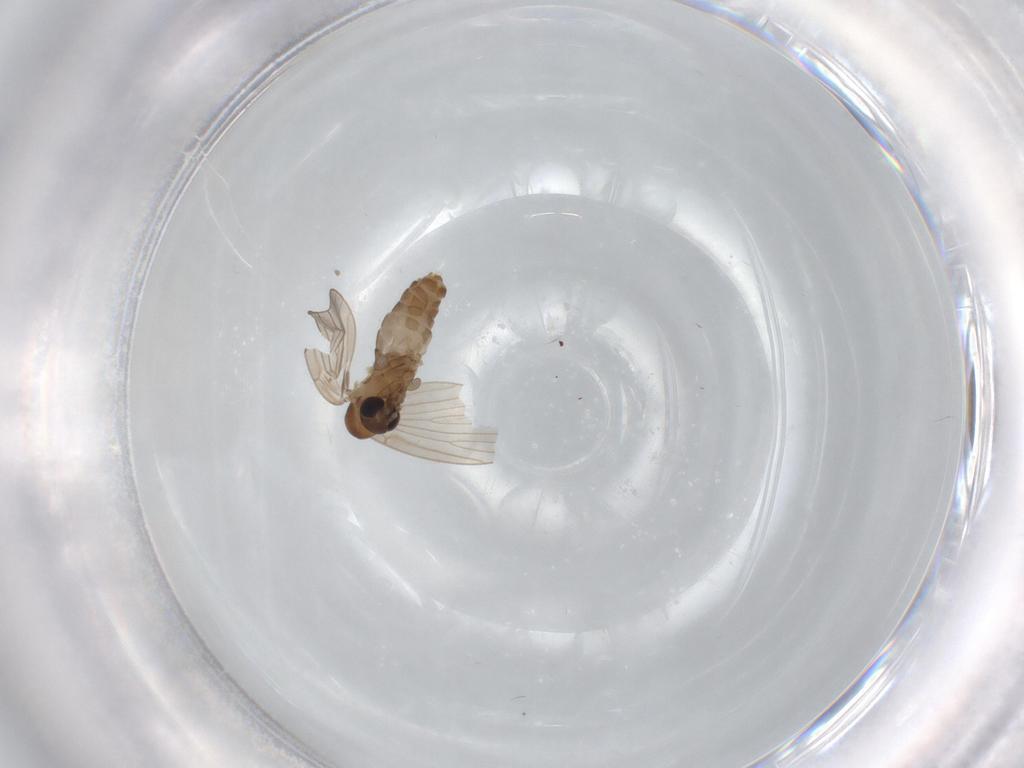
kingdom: Animalia
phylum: Arthropoda
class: Insecta
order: Diptera
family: Psychodidae
